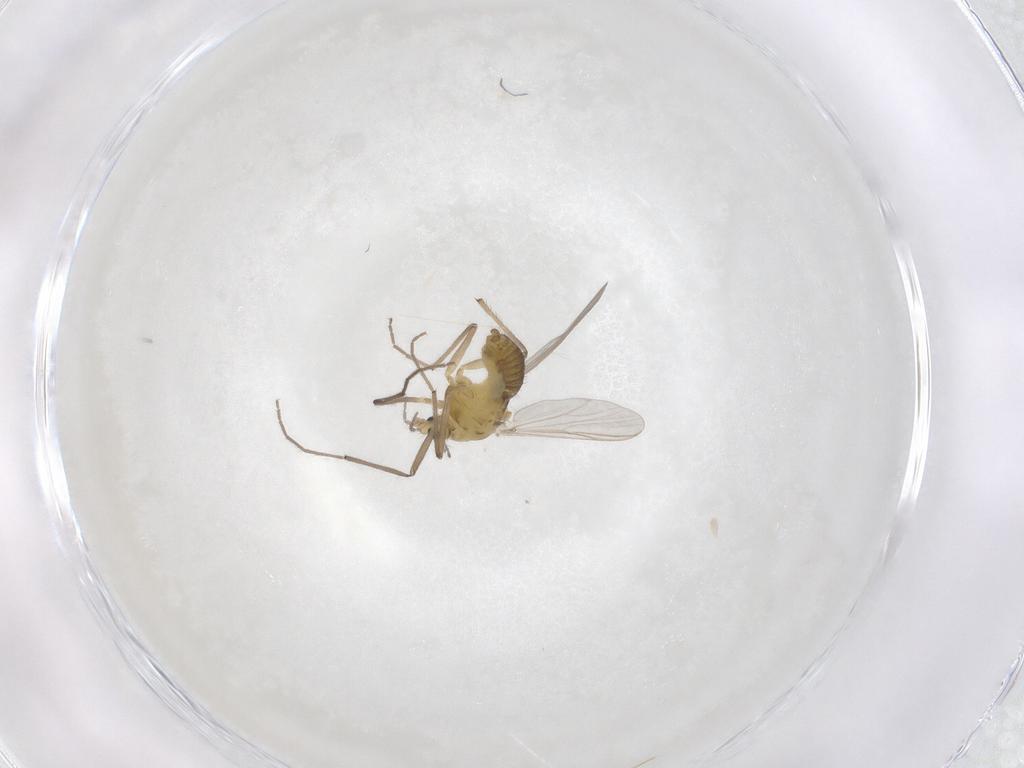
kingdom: Animalia
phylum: Arthropoda
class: Insecta
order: Diptera
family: Chironomidae
